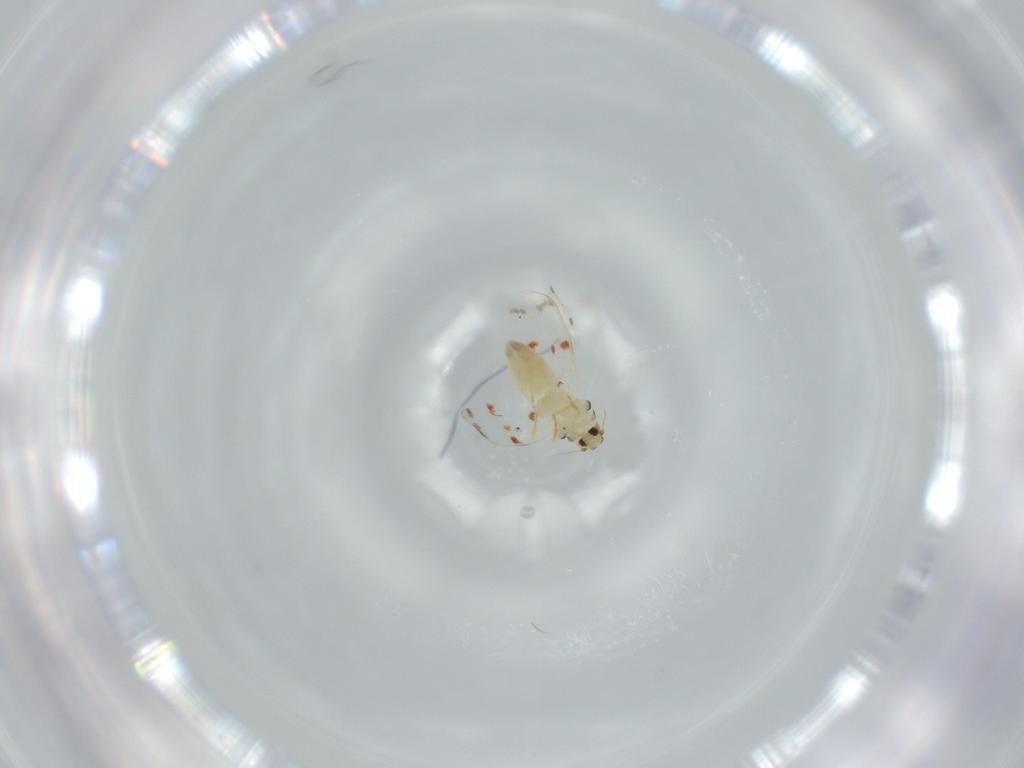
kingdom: Animalia
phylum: Arthropoda
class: Insecta
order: Hemiptera
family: Aleyrodidae
